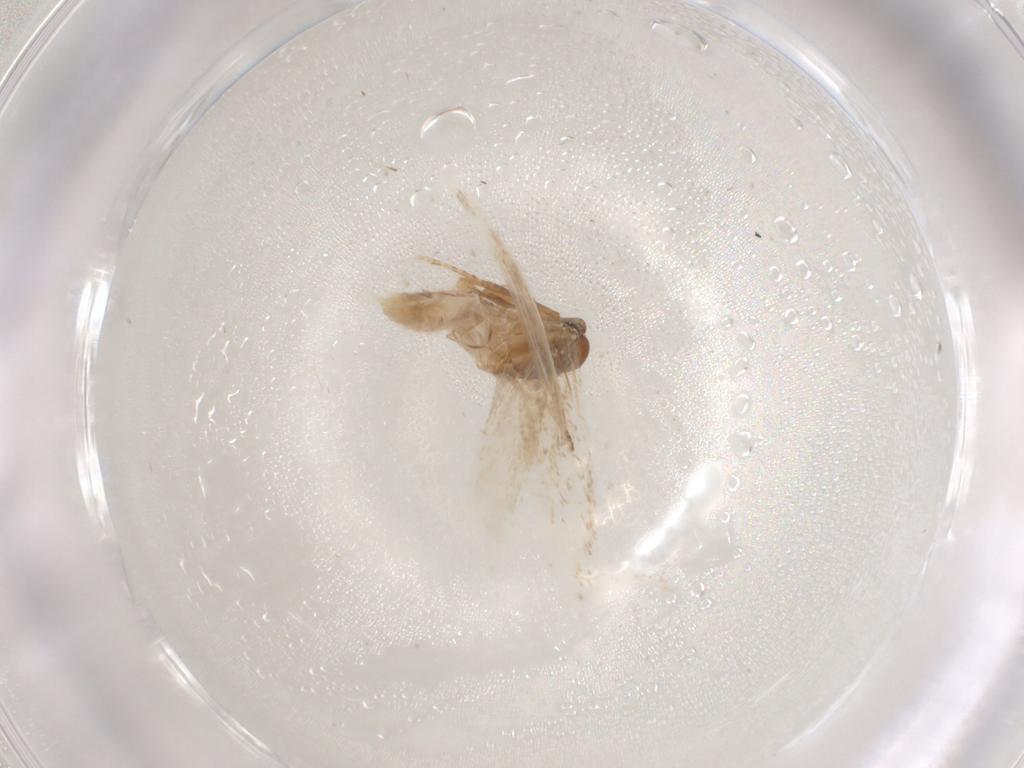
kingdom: Animalia
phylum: Arthropoda
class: Insecta
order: Lepidoptera
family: Gelechiidae
